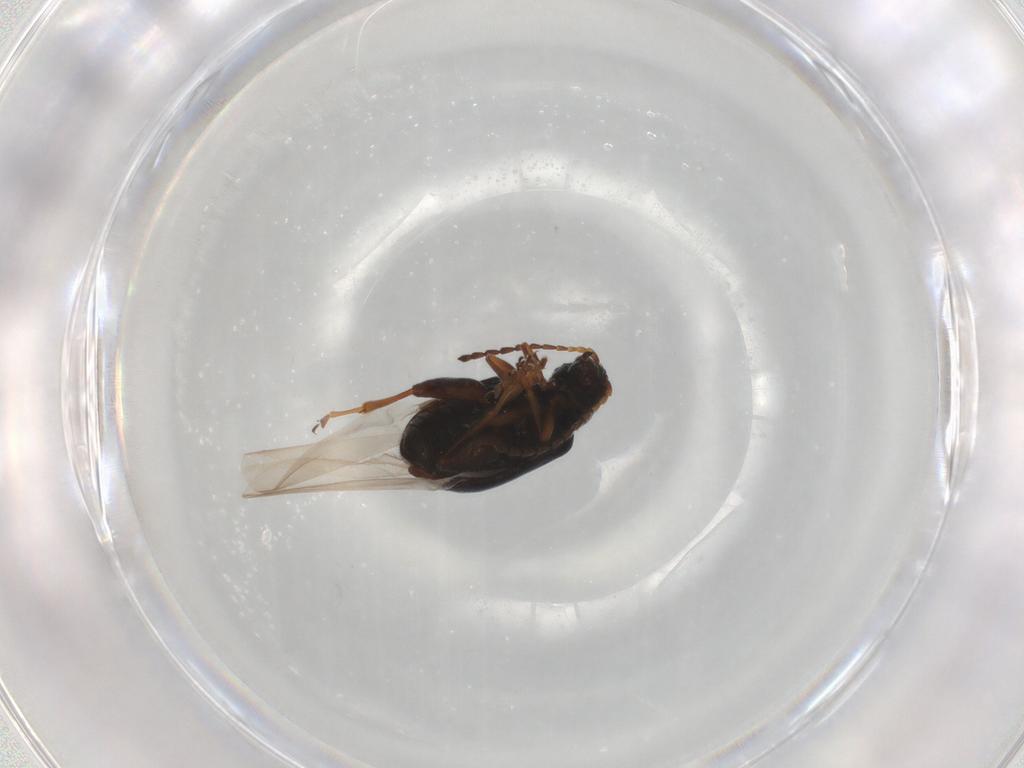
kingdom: Animalia
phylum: Arthropoda
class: Insecta
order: Coleoptera
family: Chrysomelidae
